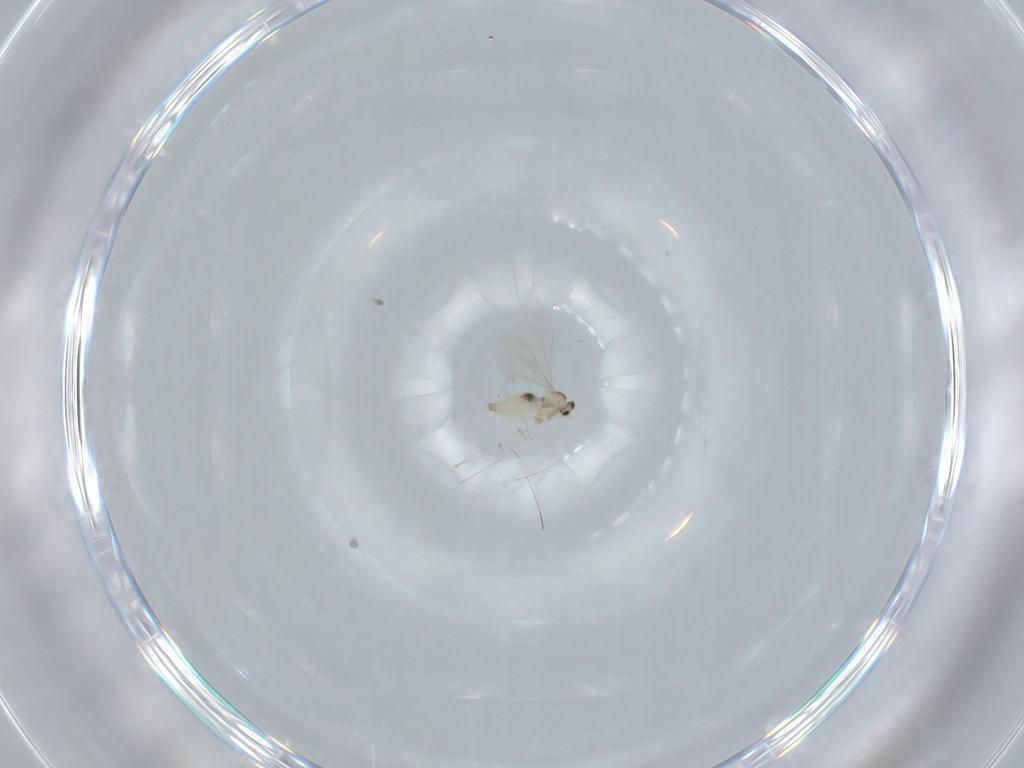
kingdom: Animalia
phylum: Arthropoda
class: Insecta
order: Diptera
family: Cecidomyiidae
